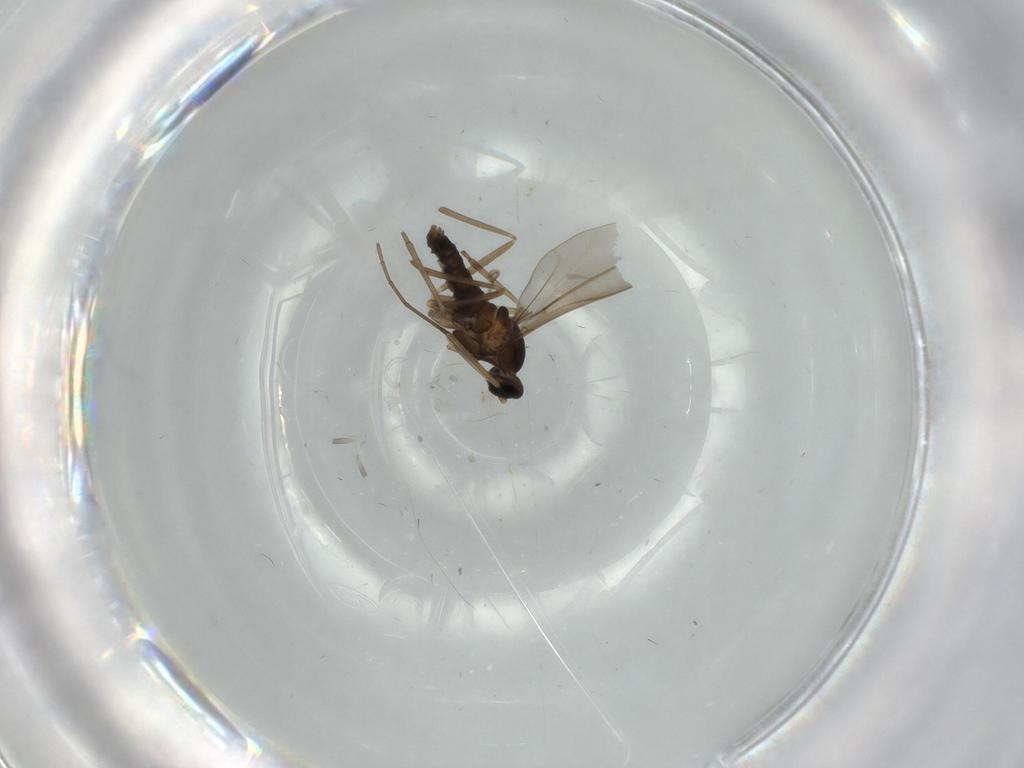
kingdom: Animalia
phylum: Arthropoda
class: Insecta
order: Diptera
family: Cecidomyiidae
